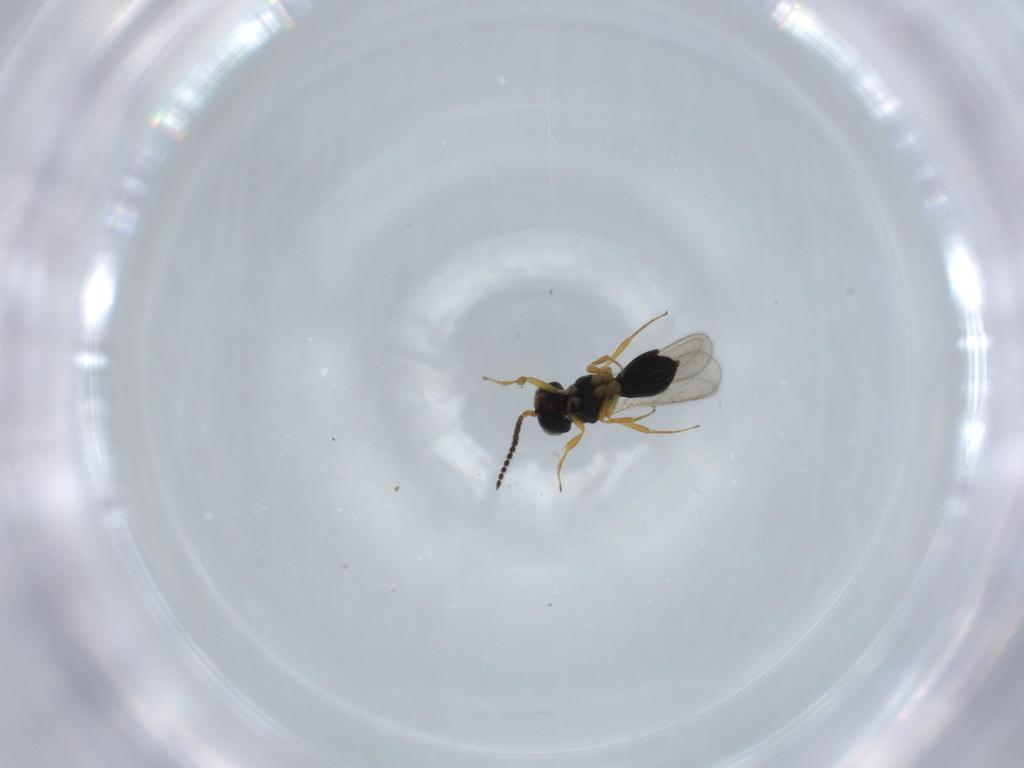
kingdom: Animalia
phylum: Arthropoda
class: Insecta
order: Hymenoptera
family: Scelionidae
